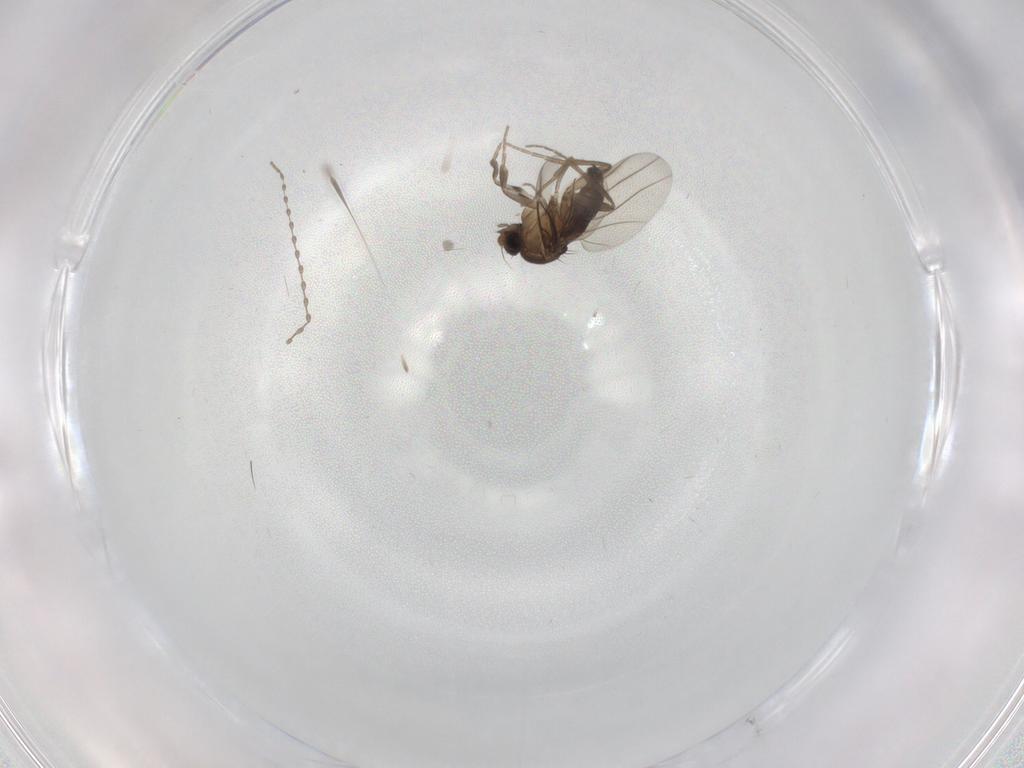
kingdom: Animalia
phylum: Arthropoda
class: Insecta
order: Diptera
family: Cecidomyiidae
